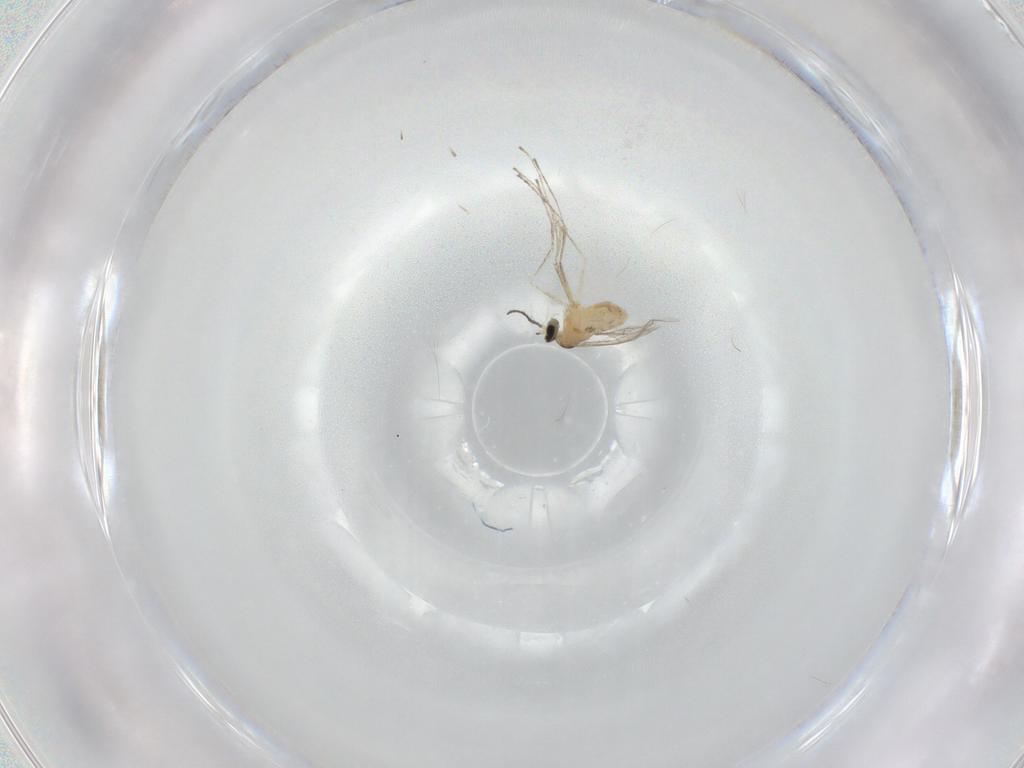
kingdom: Animalia
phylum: Arthropoda
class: Insecta
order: Diptera
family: Cecidomyiidae
